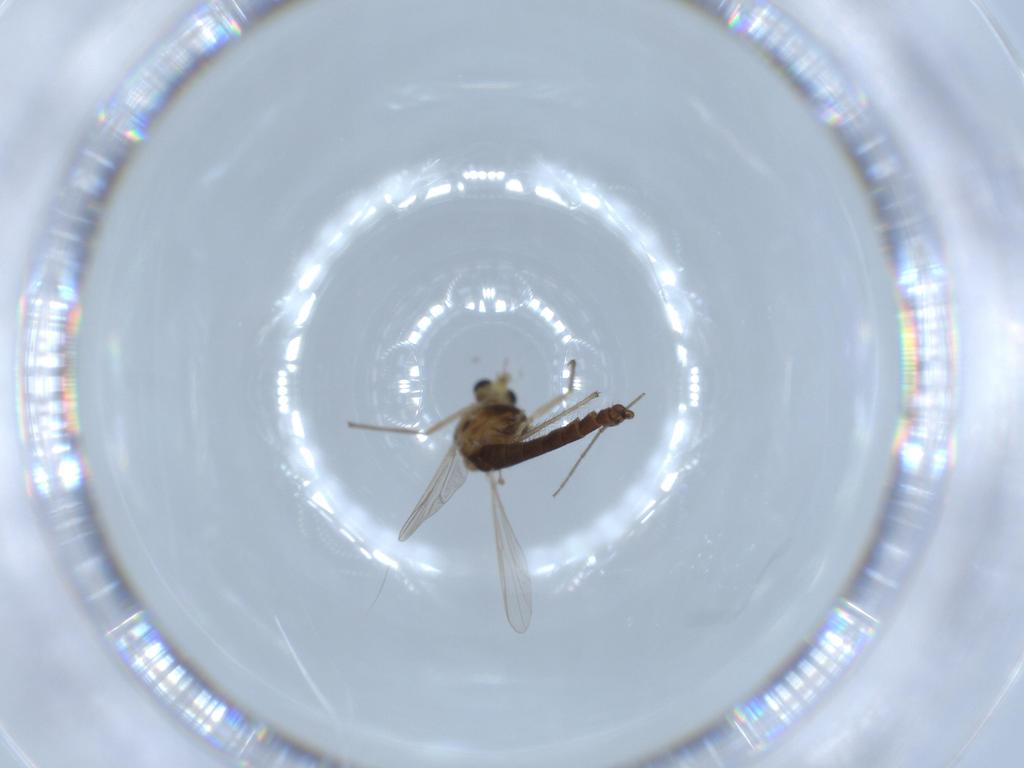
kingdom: Animalia
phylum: Arthropoda
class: Insecta
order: Diptera
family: Chironomidae
